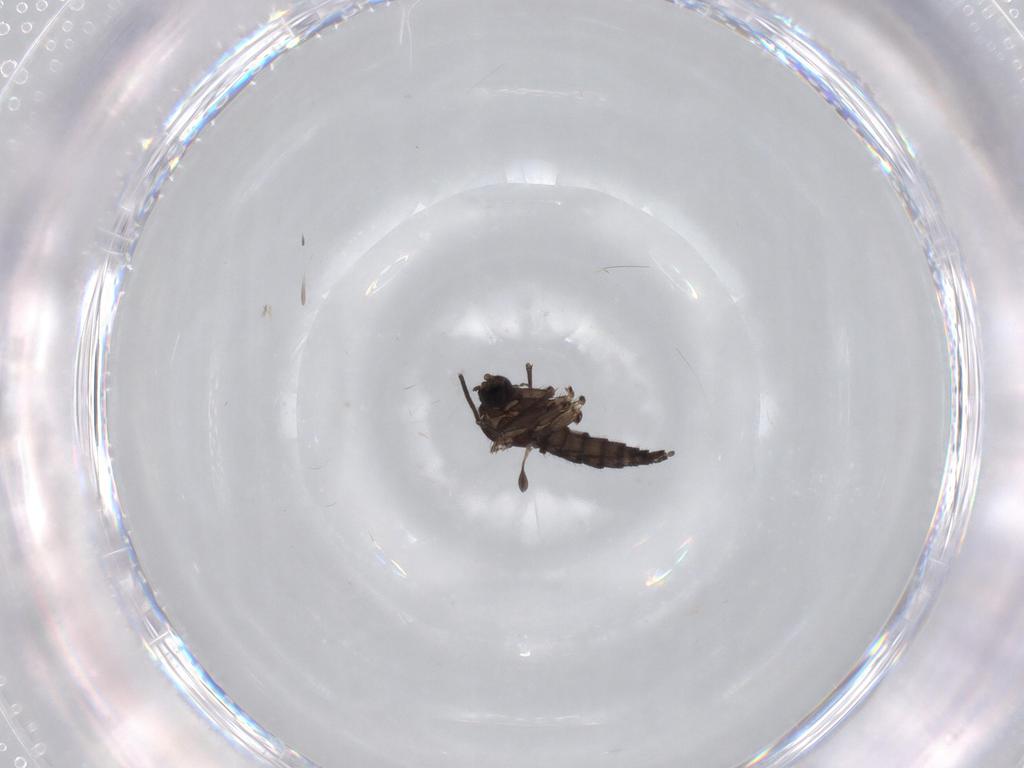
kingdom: Animalia
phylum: Arthropoda
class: Insecta
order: Diptera
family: Sciaridae
